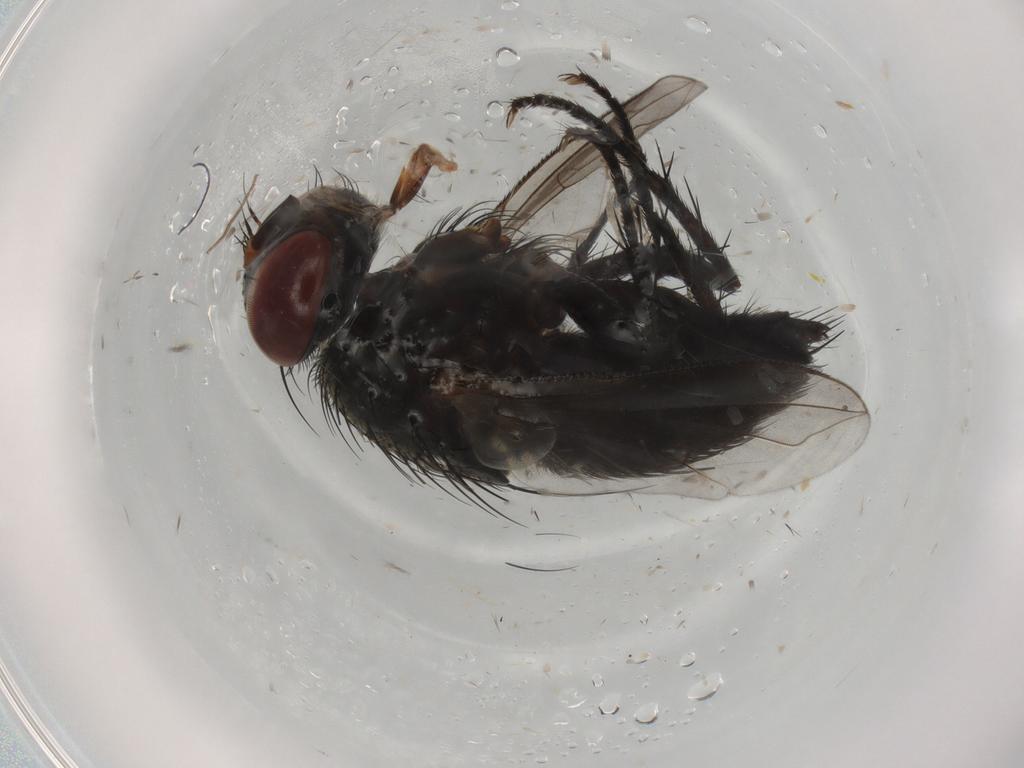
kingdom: Animalia
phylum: Arthropoda
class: Insecta
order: Diptera
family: Chironomidae
